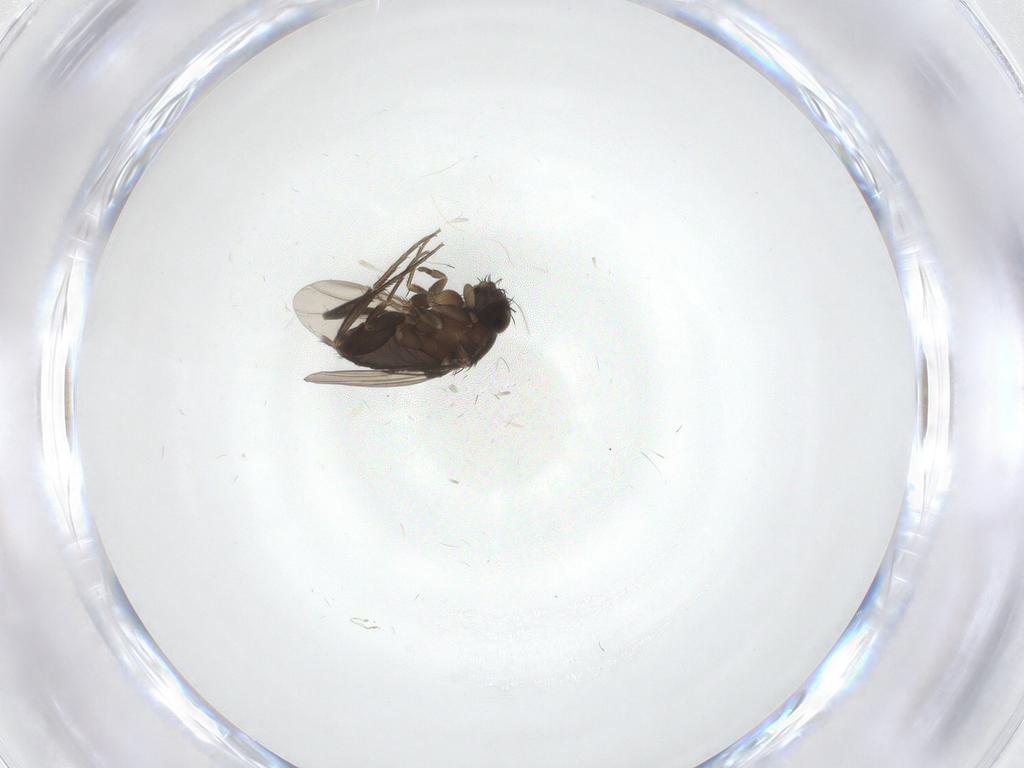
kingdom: Animalia
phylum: Arthropoda
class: Insecta
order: Diptera
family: Phoridae
